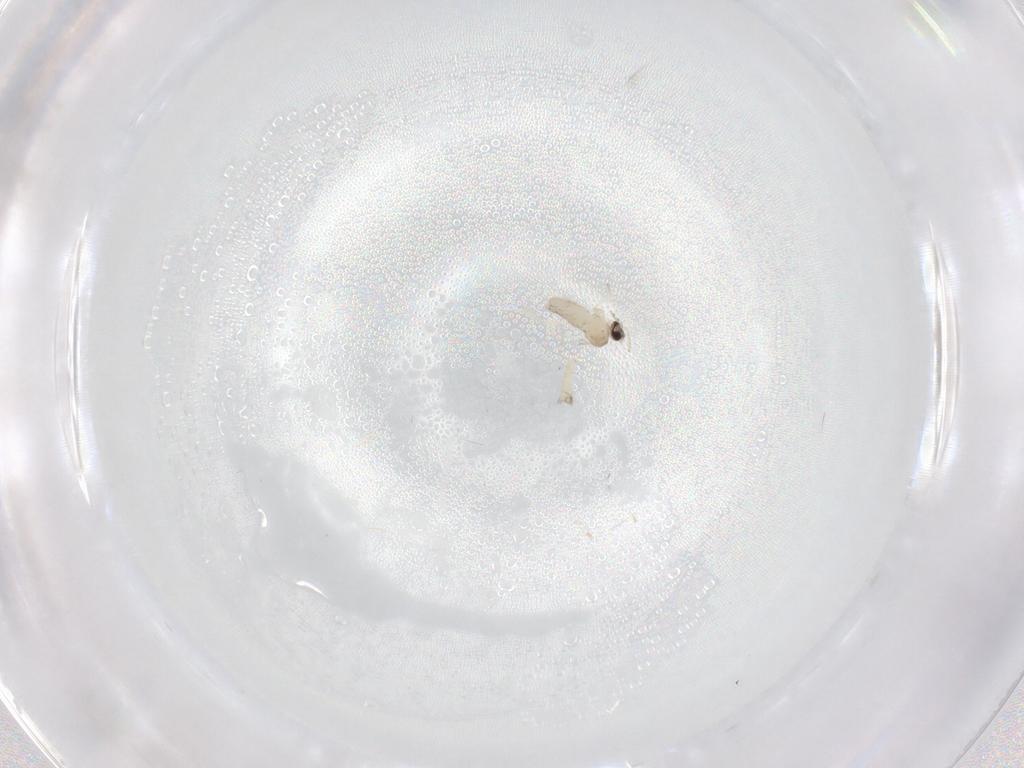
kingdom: Animalia
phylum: Arthropoda
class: Insecta
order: Diptera
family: Cecidomyiidae
